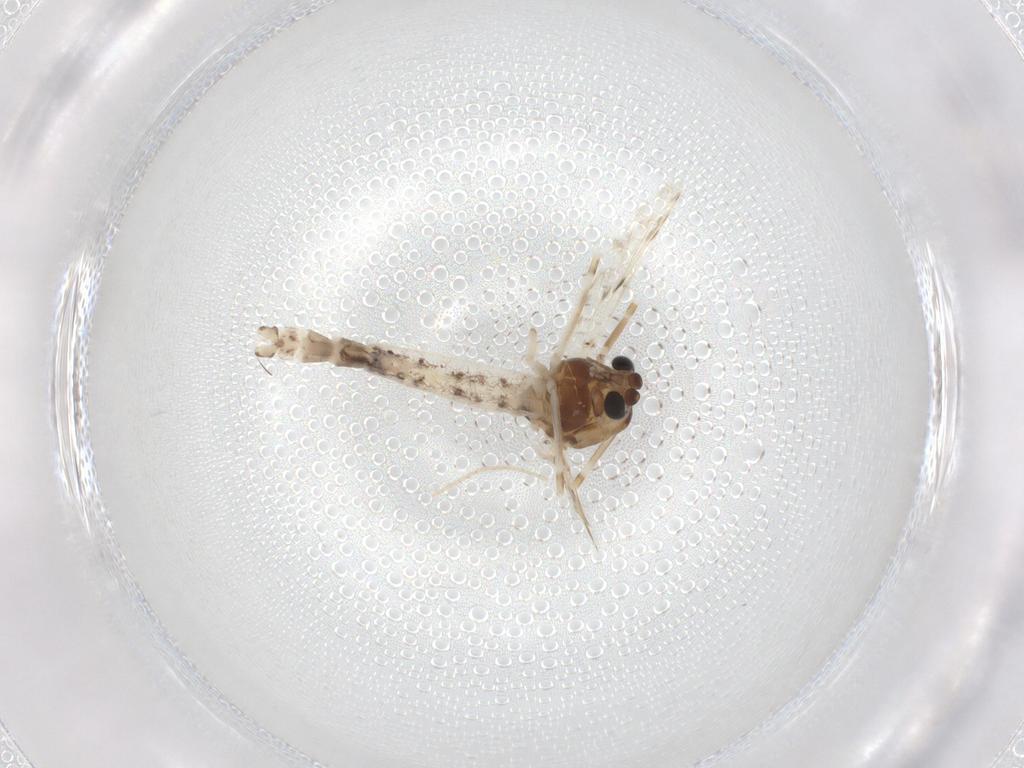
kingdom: Animalia
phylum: Arthropoda
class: Insecta
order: Diptera
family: Chironomidae
